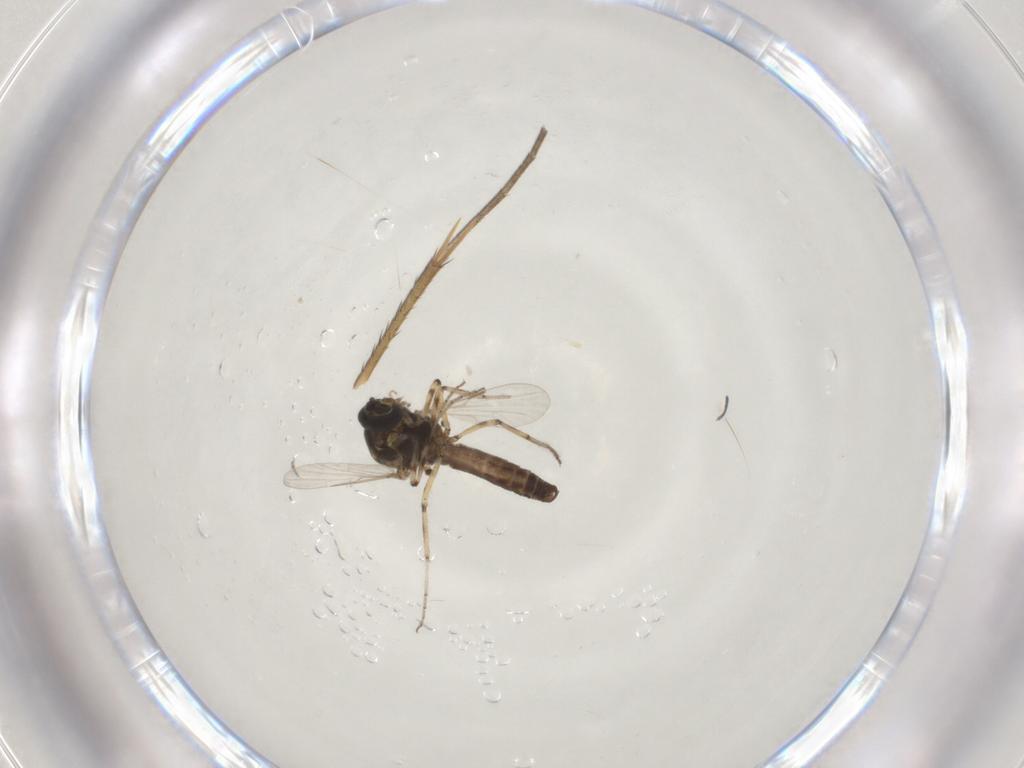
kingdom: Animalia
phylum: Arthropoda
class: Insecta
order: Diptera
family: Ceratopogonidae
